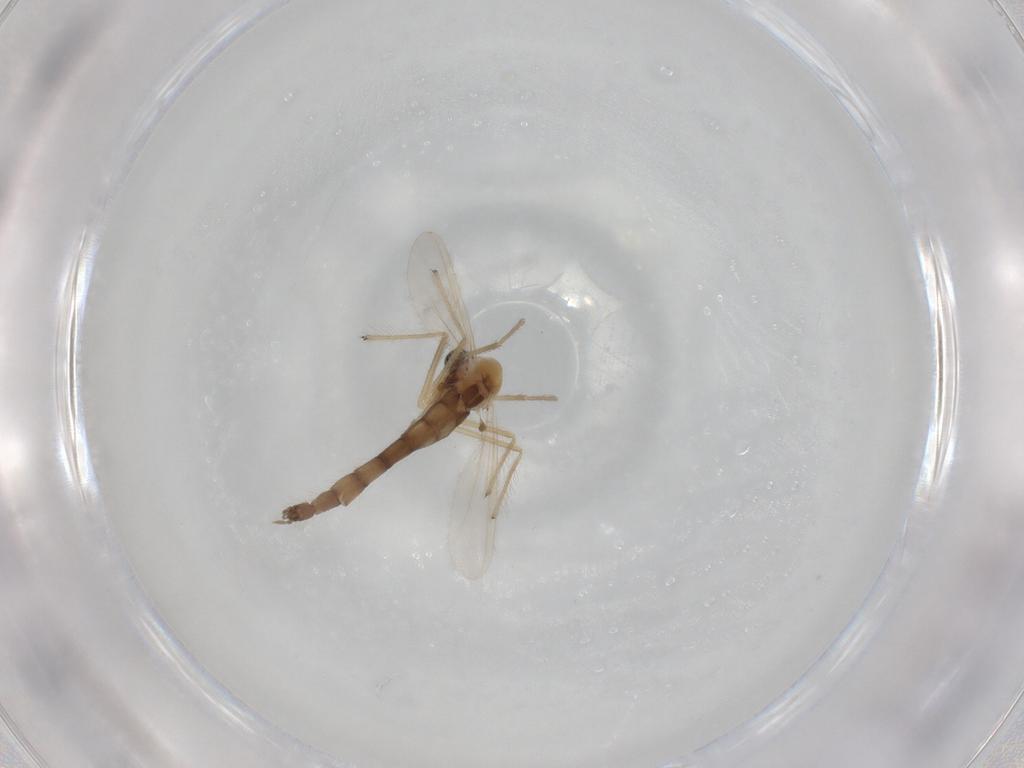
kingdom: Animalia
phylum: Arthropoda
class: Insecta
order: Diptera
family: Chironomidae
